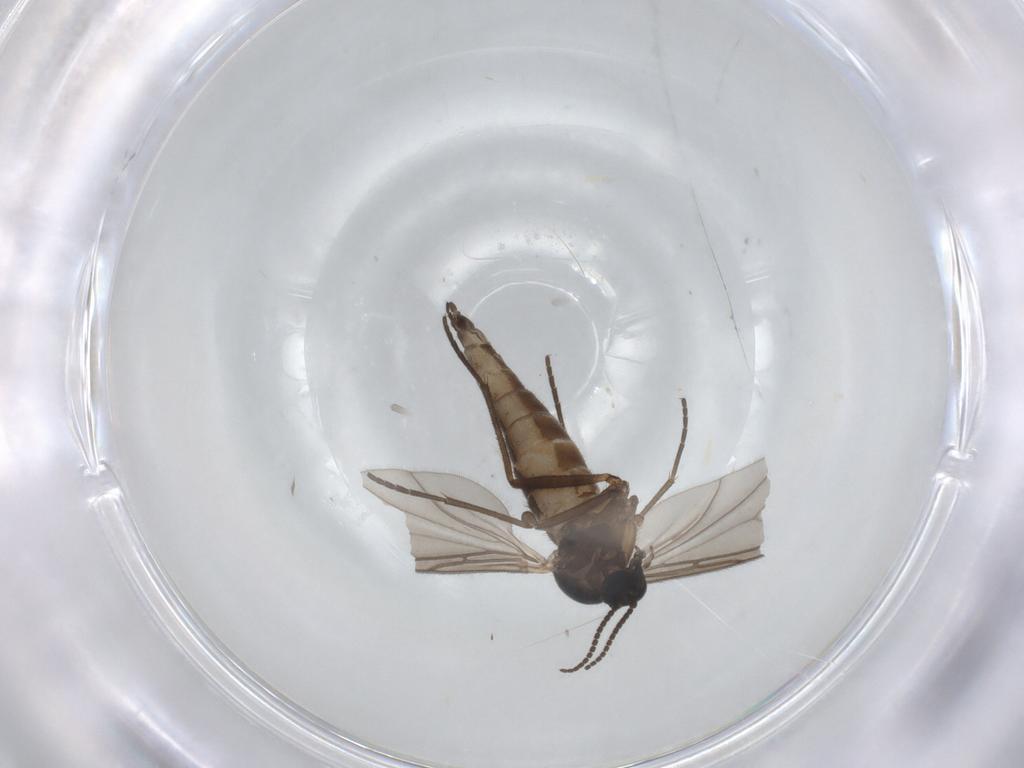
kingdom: Animalia
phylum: Arthropoda
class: Insecta
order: Diptera
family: Sciaridae
